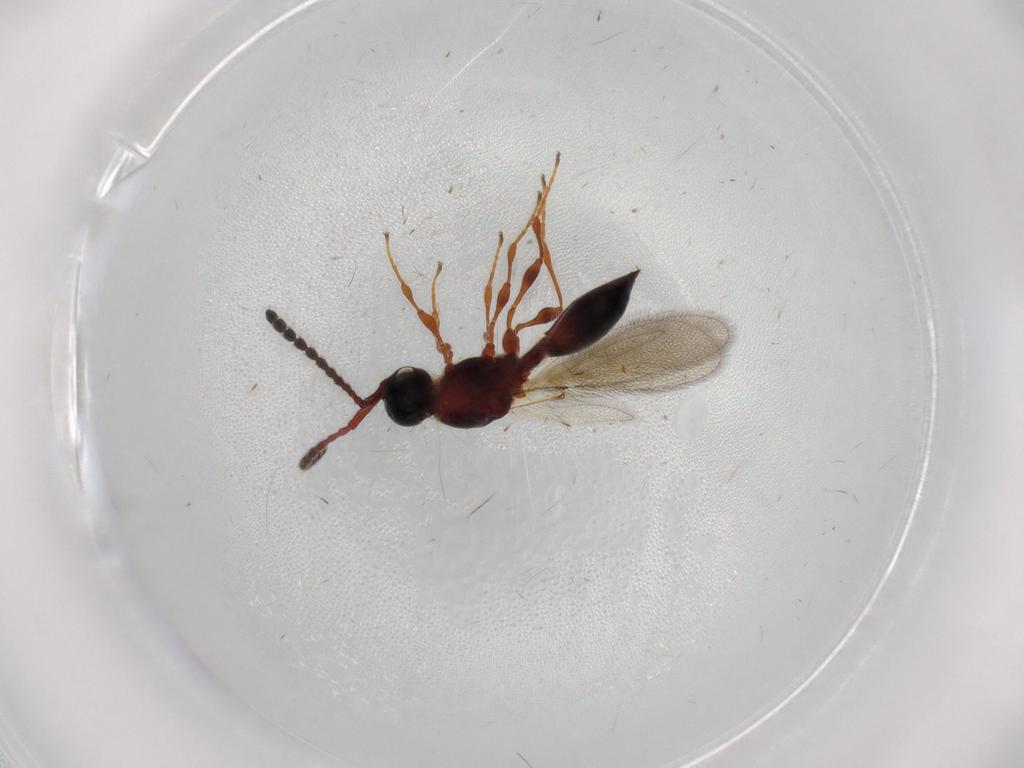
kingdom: Animalia
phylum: Arthropoda
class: Insecta
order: Hymenoptera
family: Diapriidae
